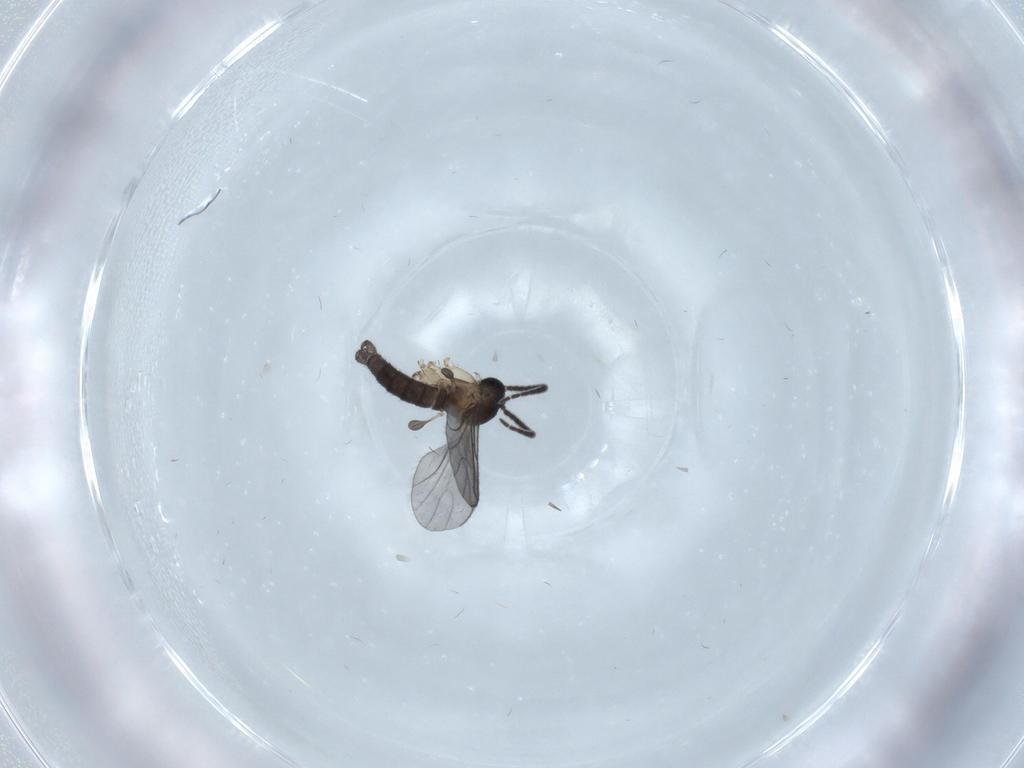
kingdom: Animalia
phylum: Arthropoda
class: Insecta
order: Diptera
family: Sciaridae
